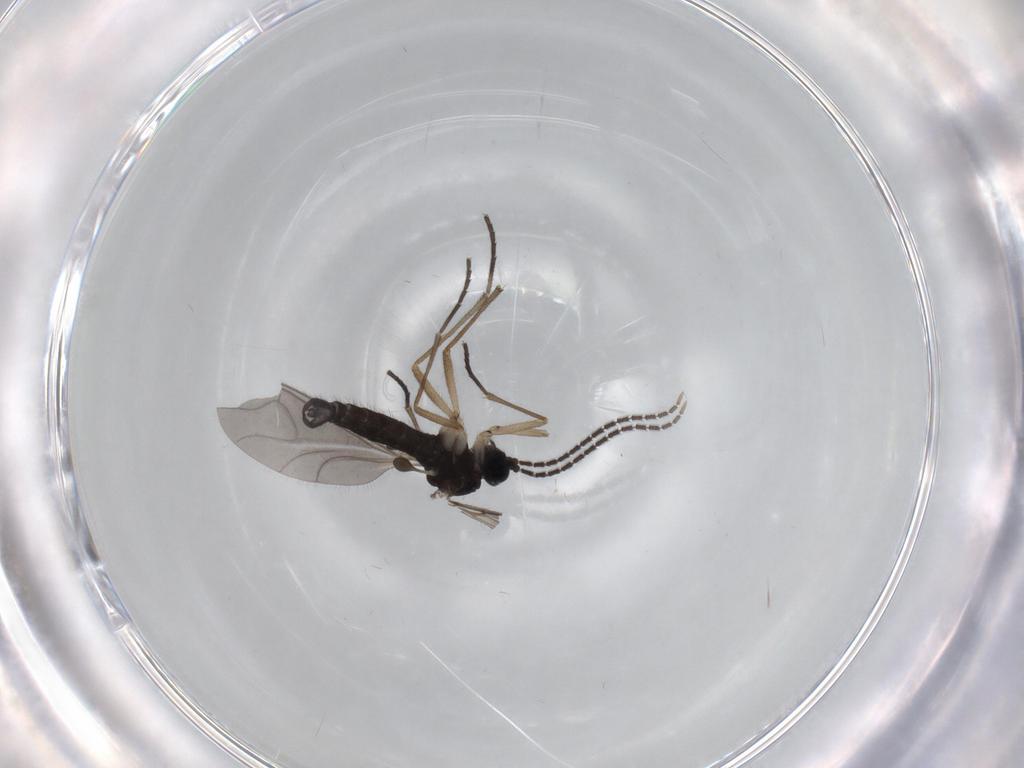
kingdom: Animalia
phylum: Arthropoda
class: Insecta
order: Diptera
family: Sciaridae
